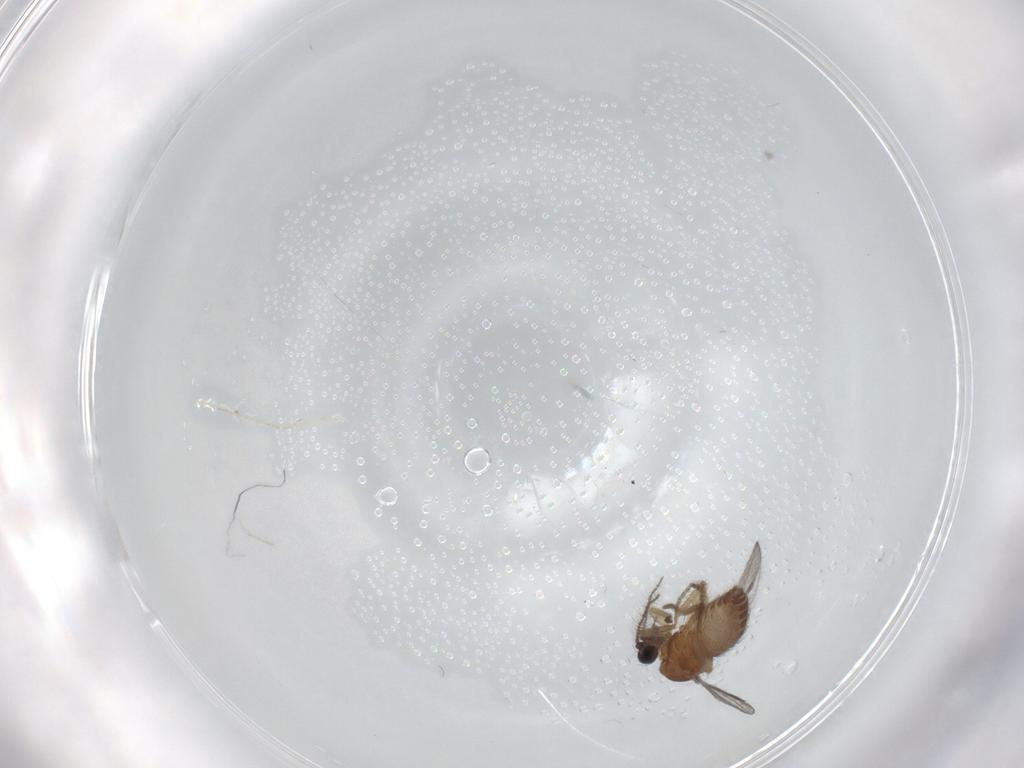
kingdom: Animalia
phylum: Arthropoda
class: Insecta
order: Diptera
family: Ceratopogonidae
